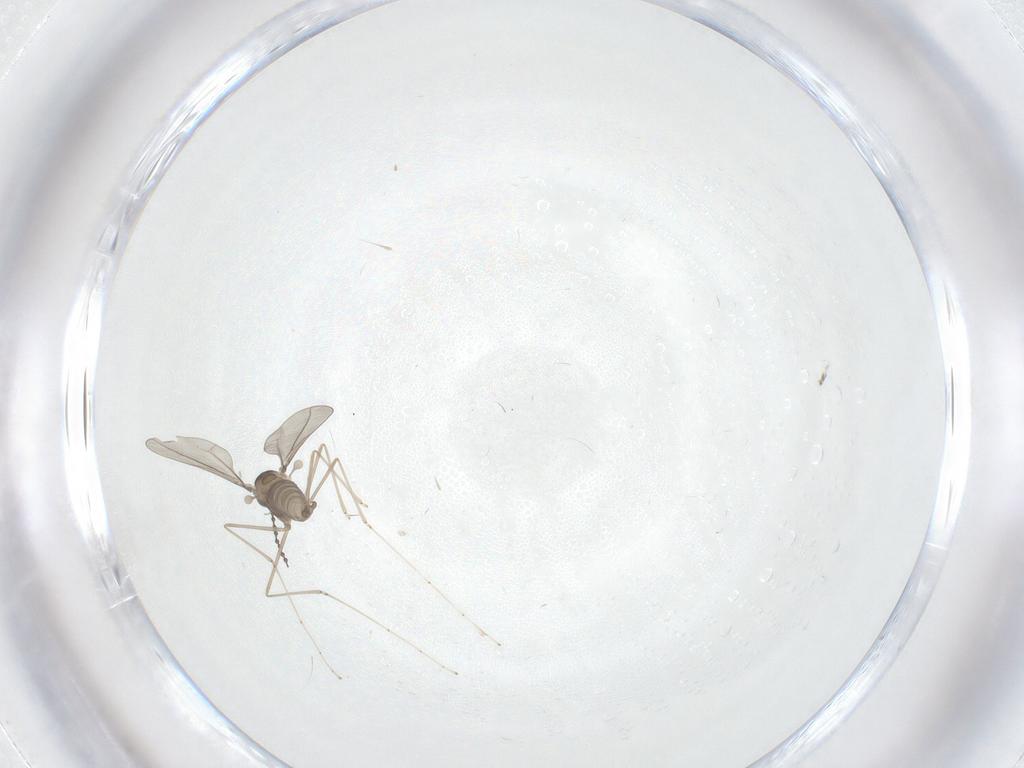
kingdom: Animalia
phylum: Arthropoda
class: Insecta
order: Diptera
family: Cecidomyiidae
